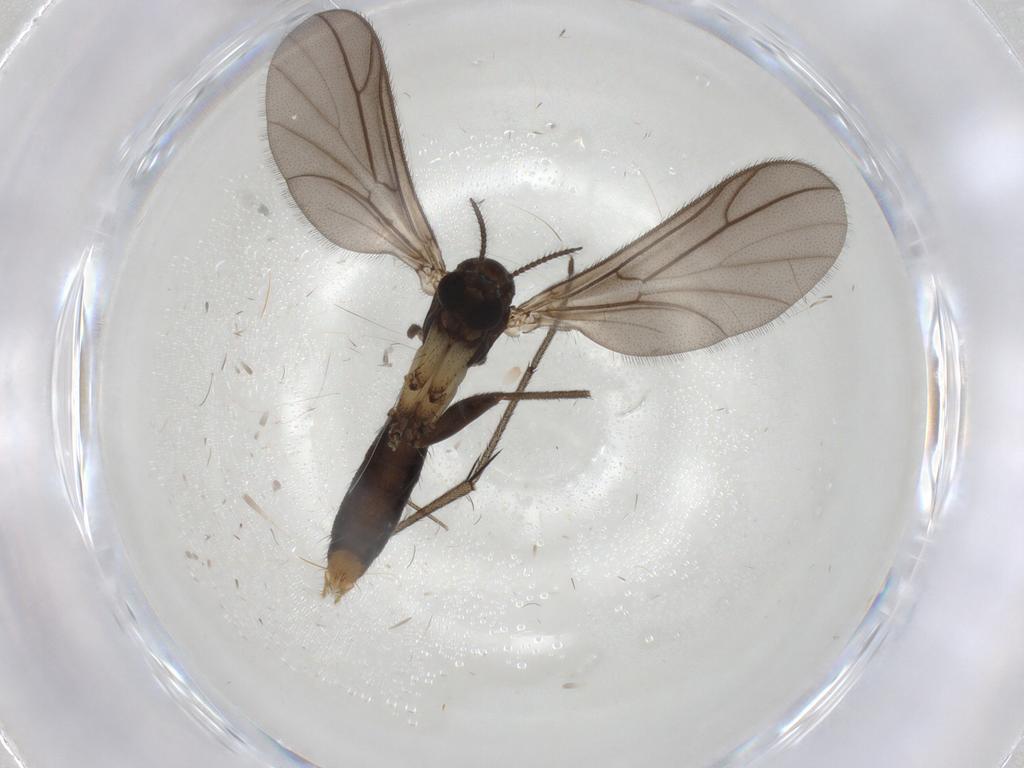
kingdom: Animalia
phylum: Arthropoda
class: Insecta
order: Diptera
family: Ditomyiidae
